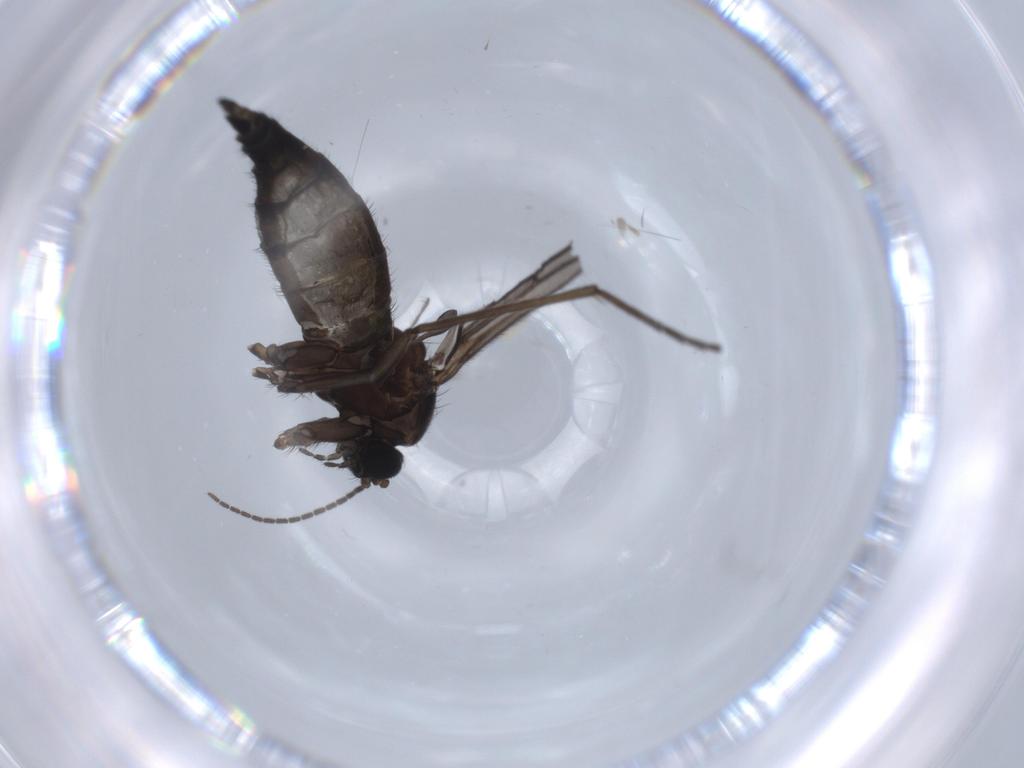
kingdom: Animalia
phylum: Arthropoda
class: Insecta
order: Diptera
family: Sciaridae
